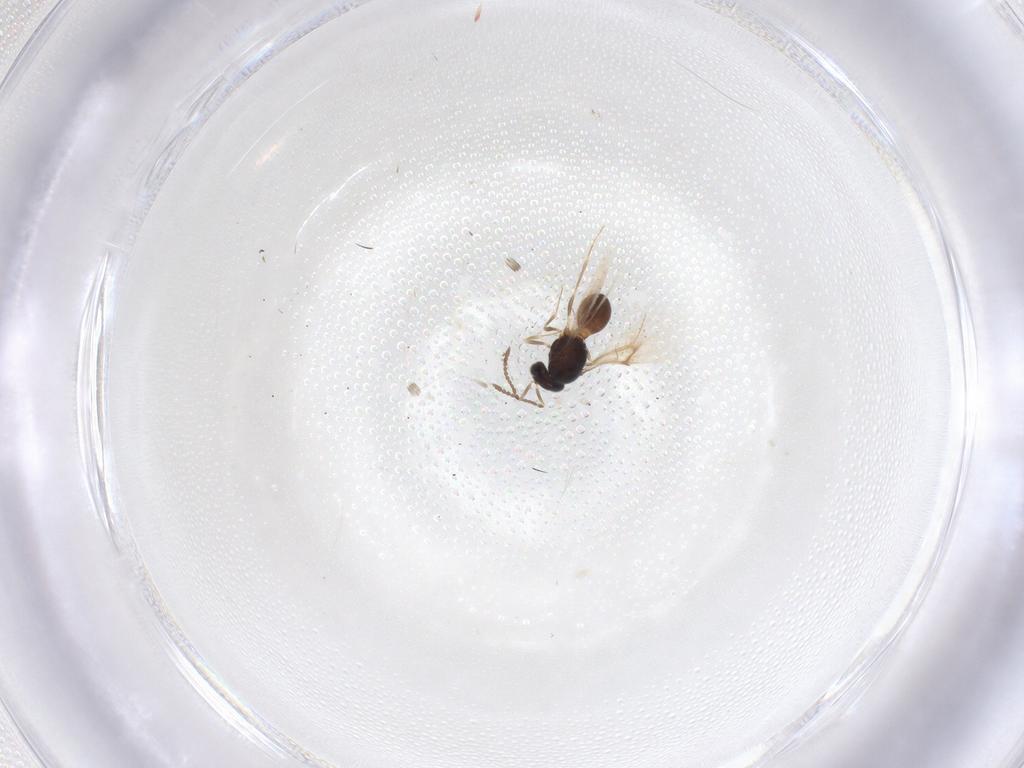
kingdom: Animalia
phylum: Arthropoda
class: Insecta
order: Hymenoptera
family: Scelionidae
